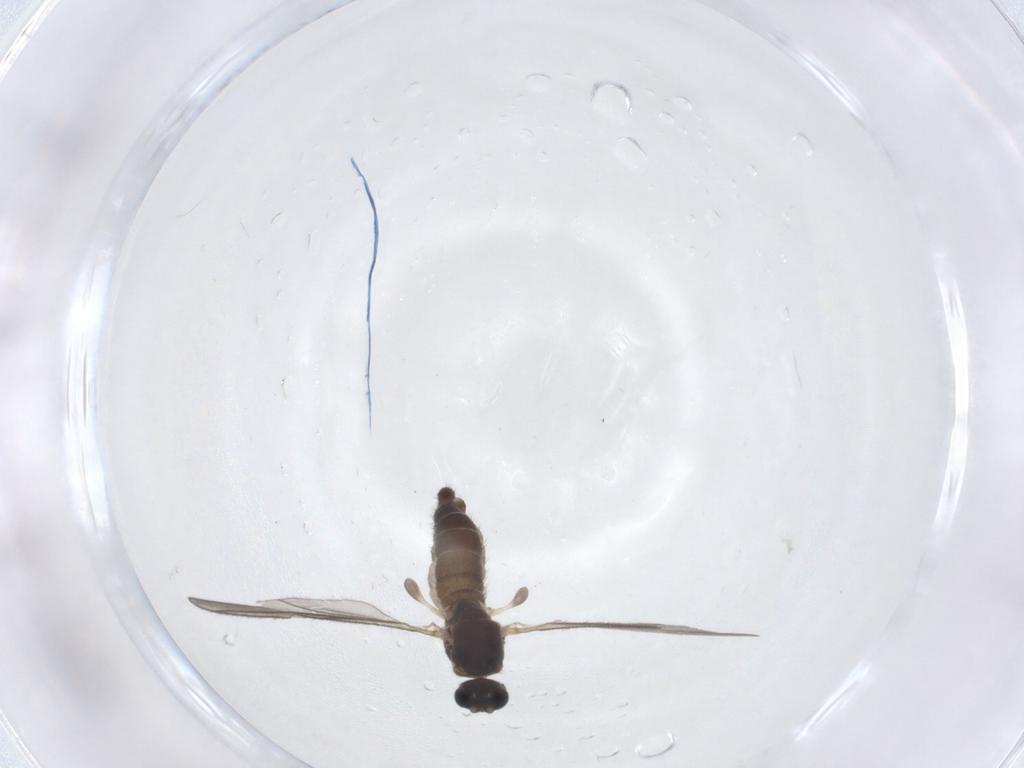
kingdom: Animalia
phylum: Arthropoda
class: Insecta
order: Diptera
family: Sciaridae
